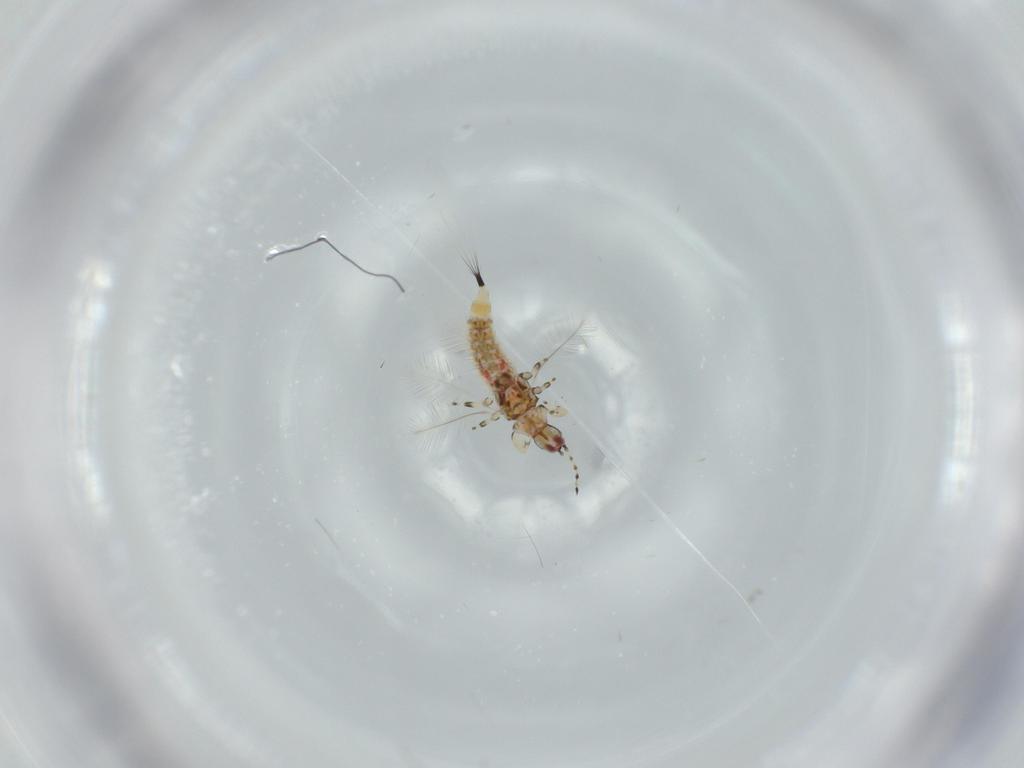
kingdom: Animalia
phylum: Arthropoda
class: Insecta
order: Thysanoptera
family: Phlaeothripidae
